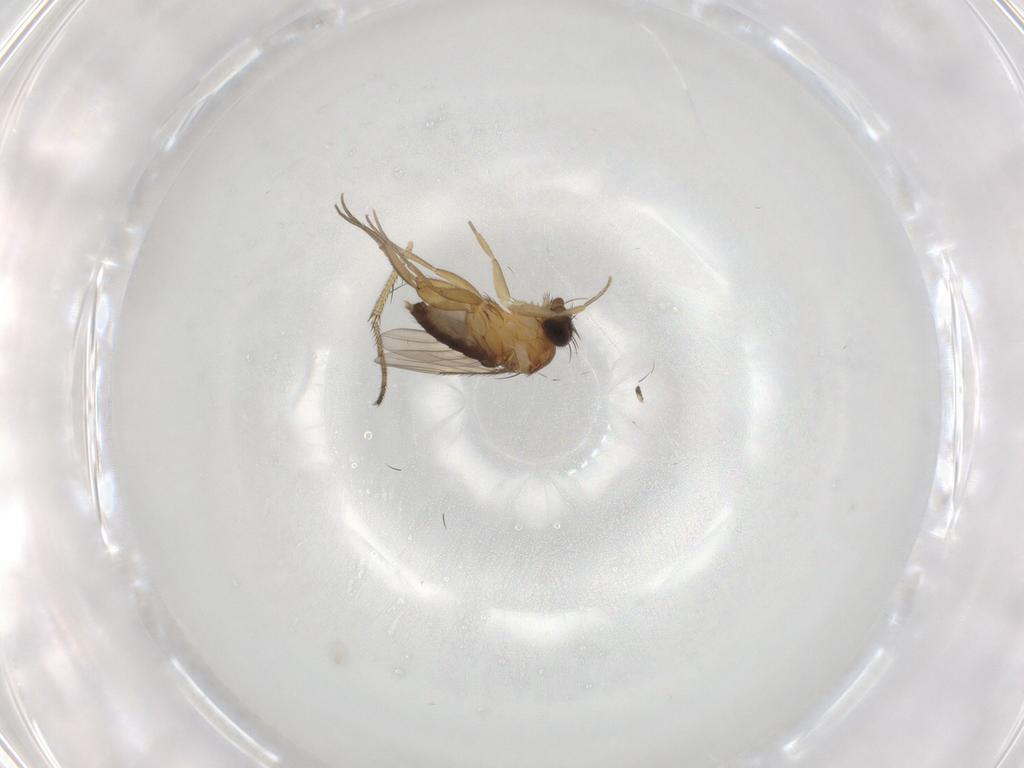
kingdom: Animalia
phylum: Arthropoda
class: Insecta
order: Diptera
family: Phoridae
